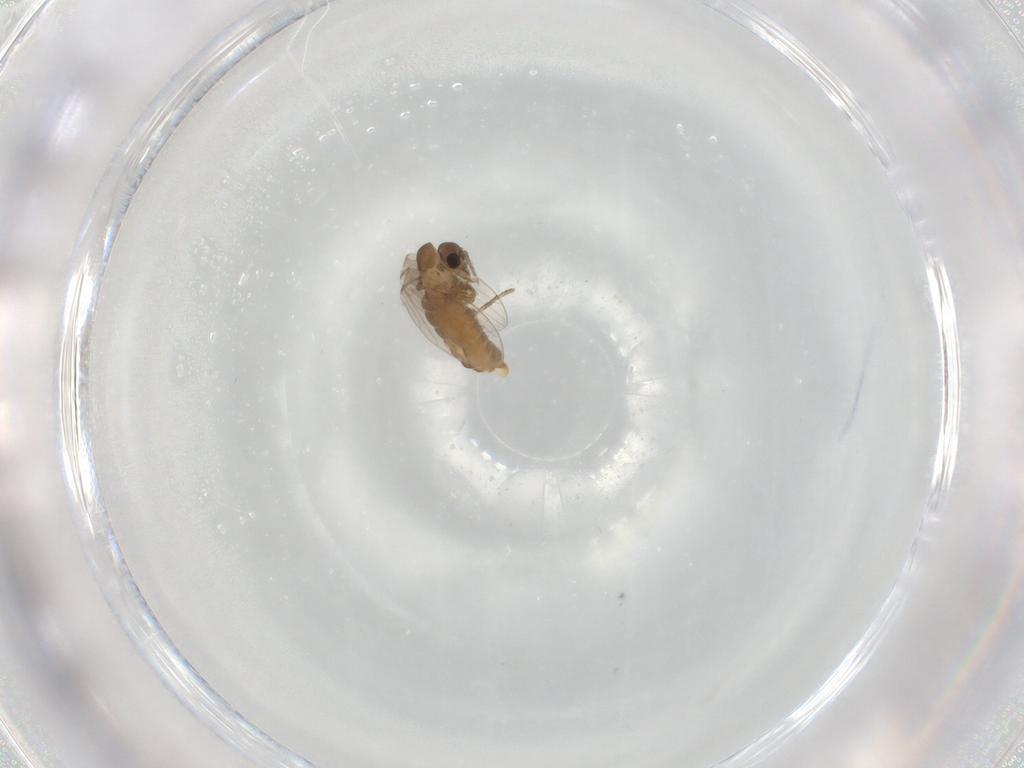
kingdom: Animalia
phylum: Arthropoda
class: Insecta
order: Diptera
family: Chironomidae
